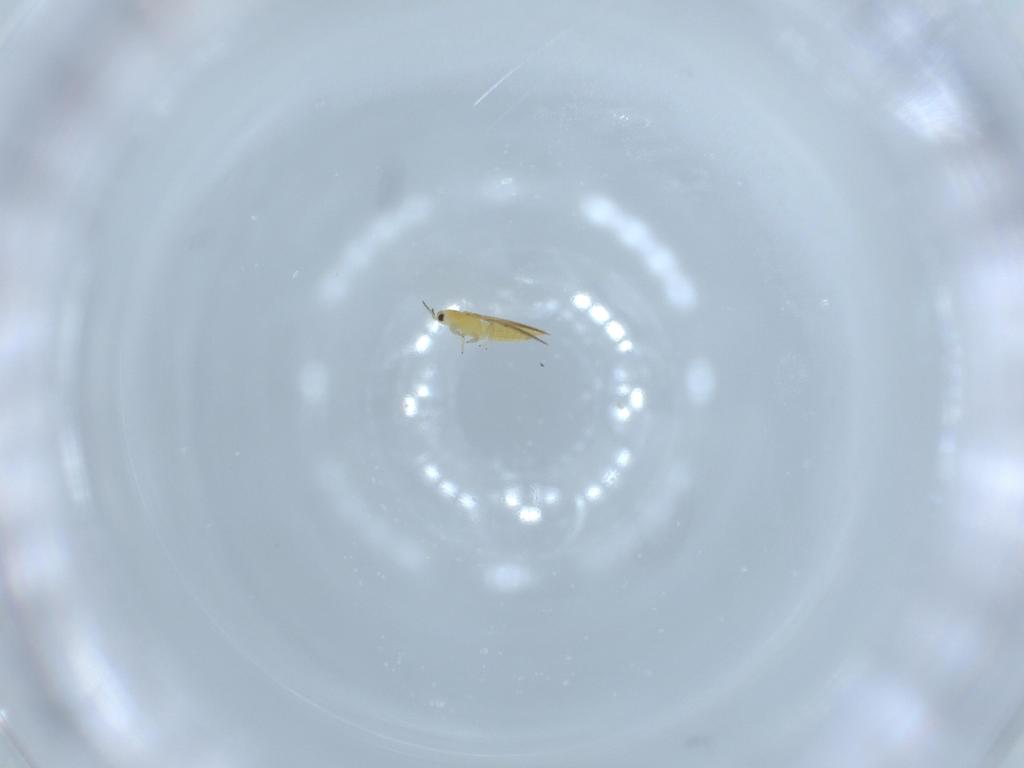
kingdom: Animalia
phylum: Arthropoda
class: Insecta
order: Thysanoptera
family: Thripidae
